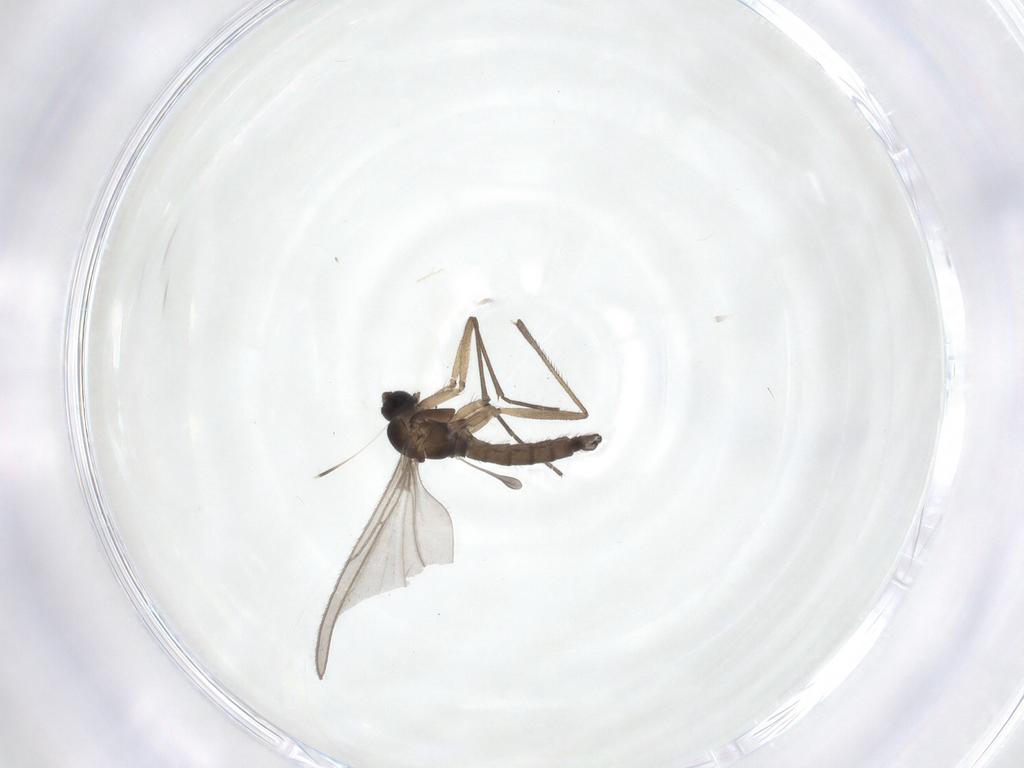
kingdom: Animalia
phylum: Arthropoda
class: Insecta
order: Diptera
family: Sciaridae
